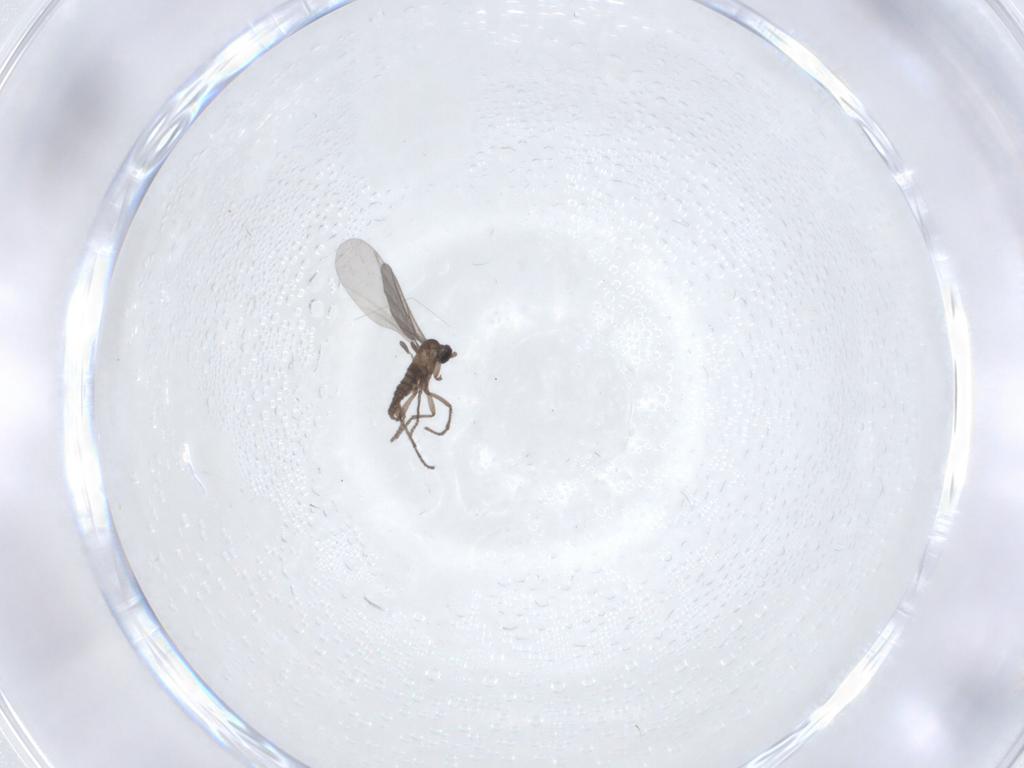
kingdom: Animalia
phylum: Arthropoda
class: Insecta
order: Diptera
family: Sciaridae
